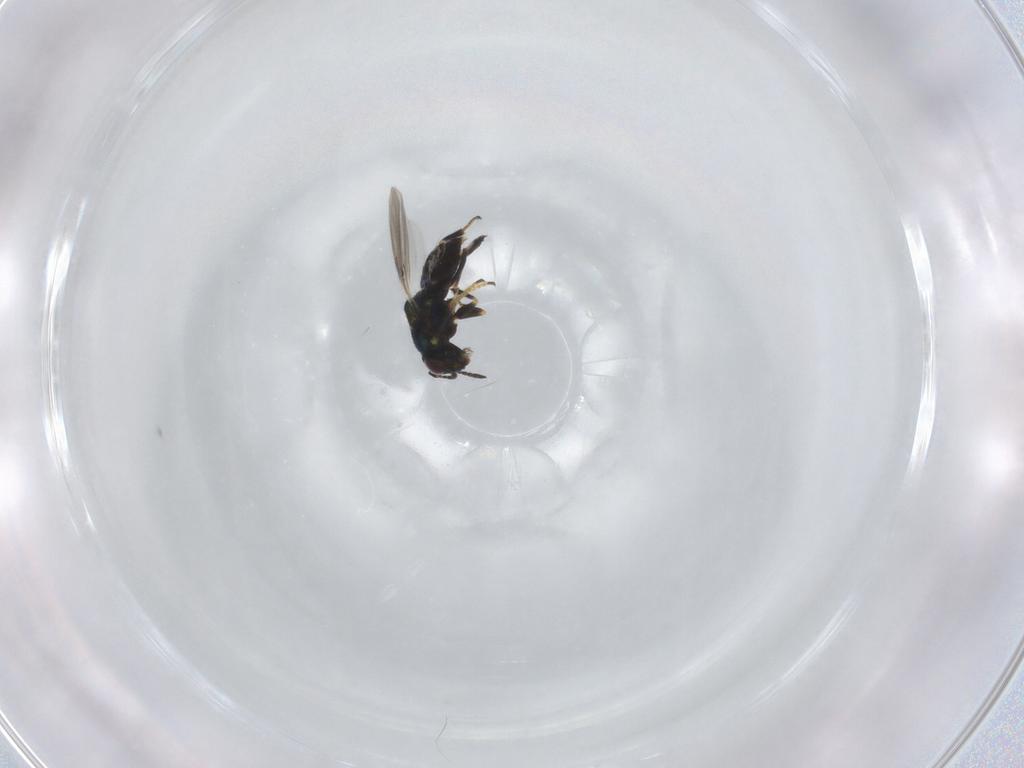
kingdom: Animalia
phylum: Arthropoda
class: Insecta
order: Hymenoptera
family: Encyrtidae
